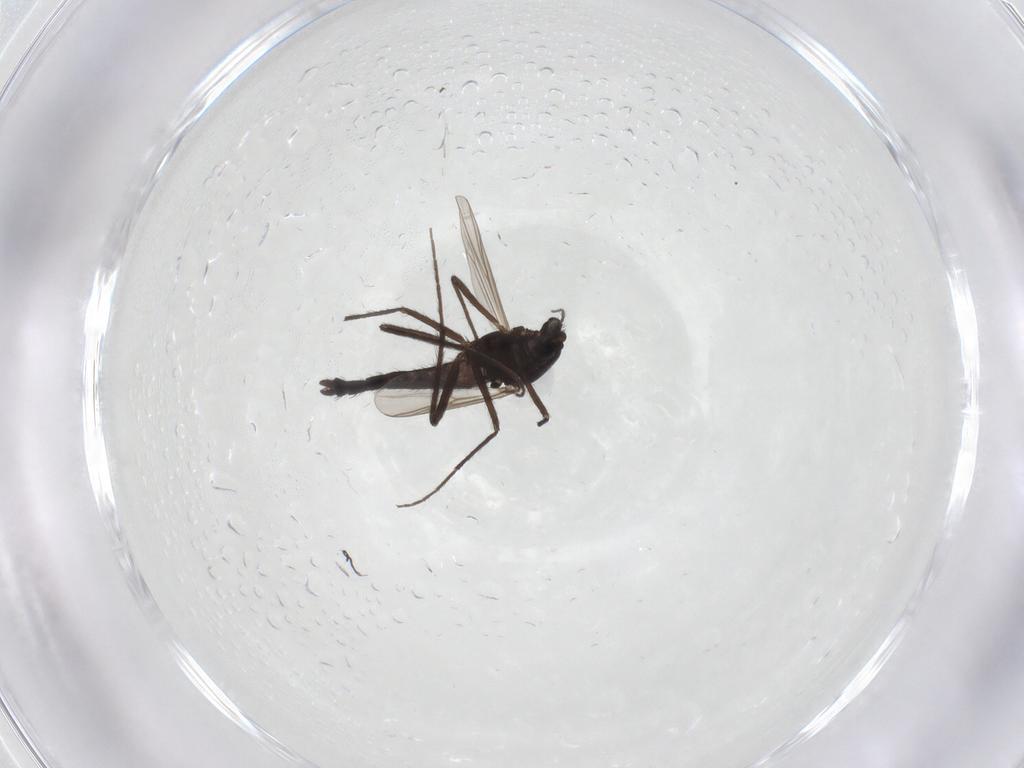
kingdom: Animalia
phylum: Arthropoda
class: Insecta
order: Diptera
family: Chironomidae
